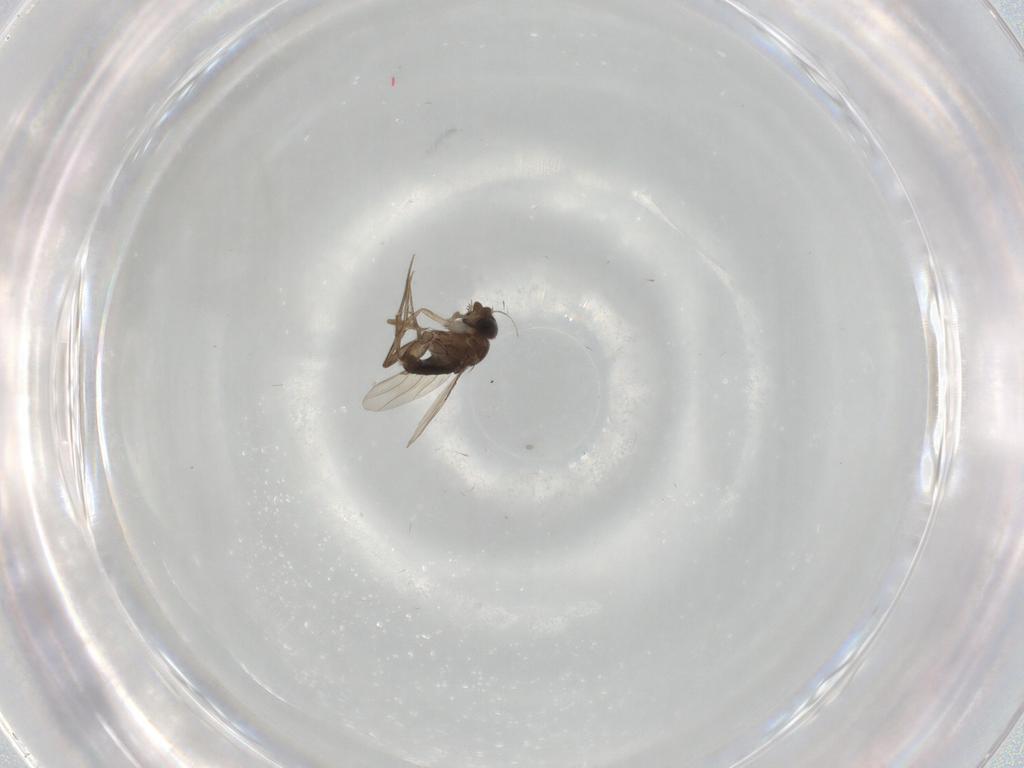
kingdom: Animalia
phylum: Arthropoda
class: Insecta
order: Diptera
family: Phoridae
